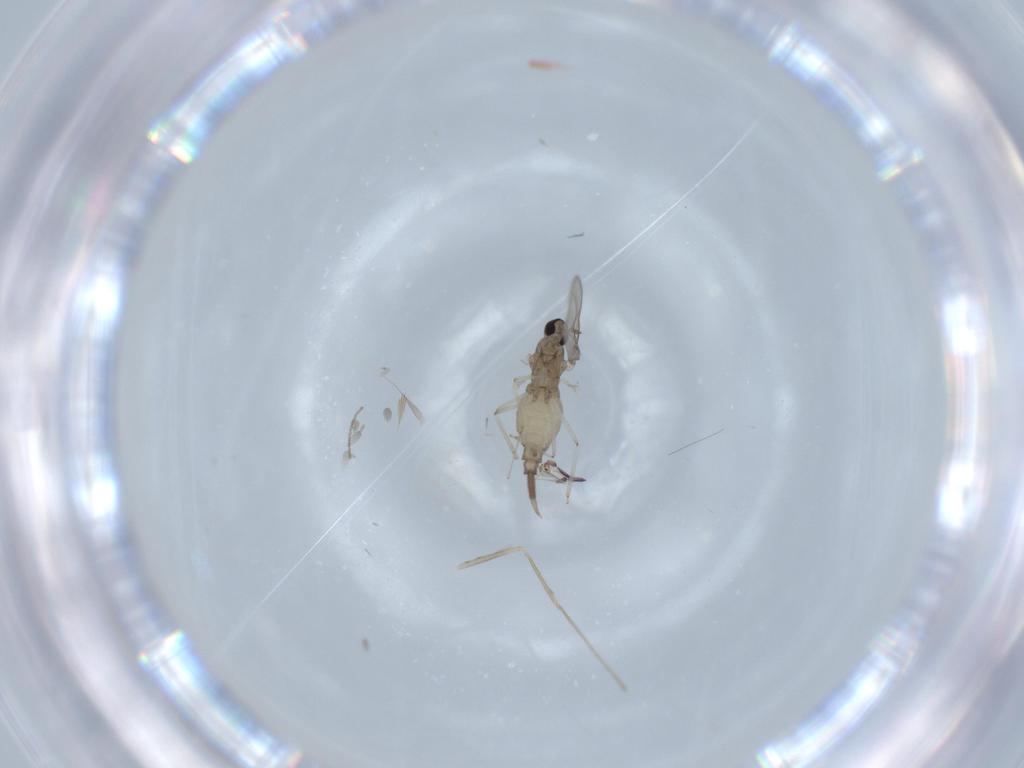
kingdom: Animalia
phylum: Arthropoda
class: Insecta
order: Diptera
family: Cecidomyiidae
